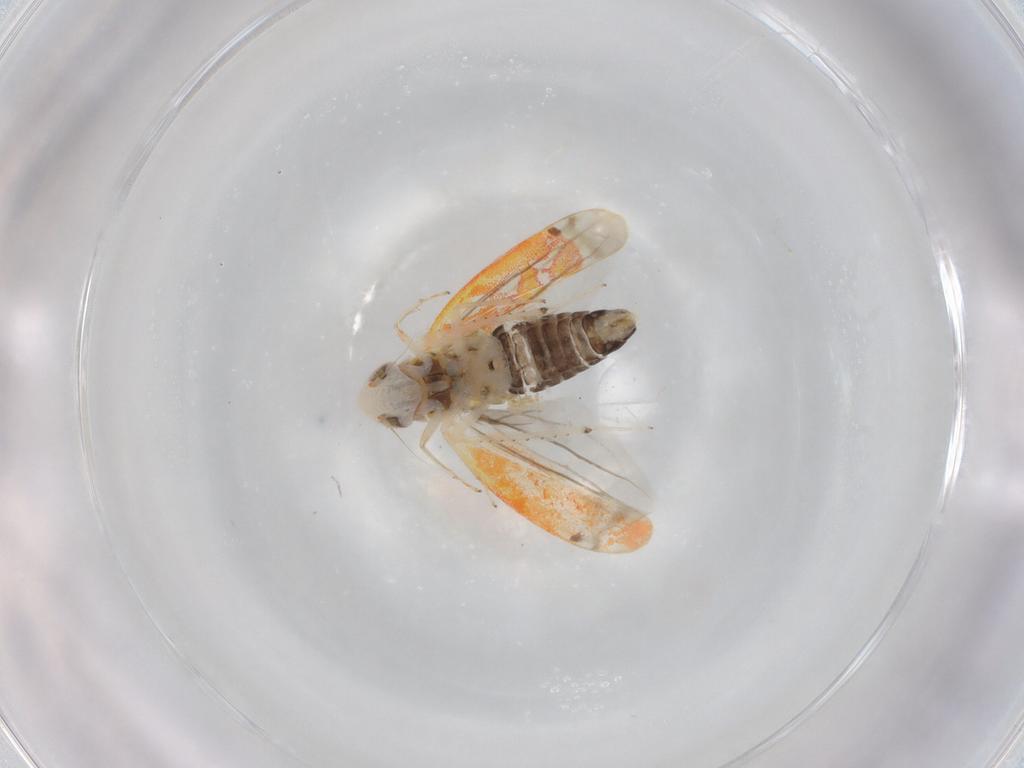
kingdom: Animalia
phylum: Arthropoda
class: Insecta
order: Hemiptera
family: Cicadellidae
